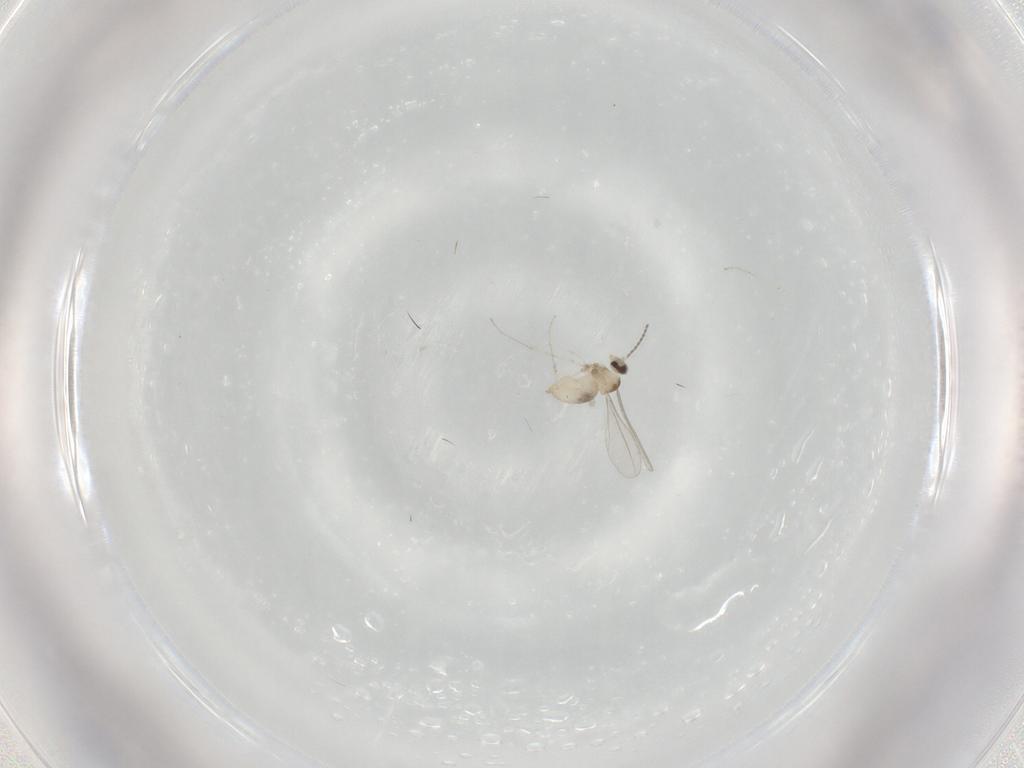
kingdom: Animalia
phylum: Arthropoda
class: Insecta
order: Diptera
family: Cecidomyiidae
